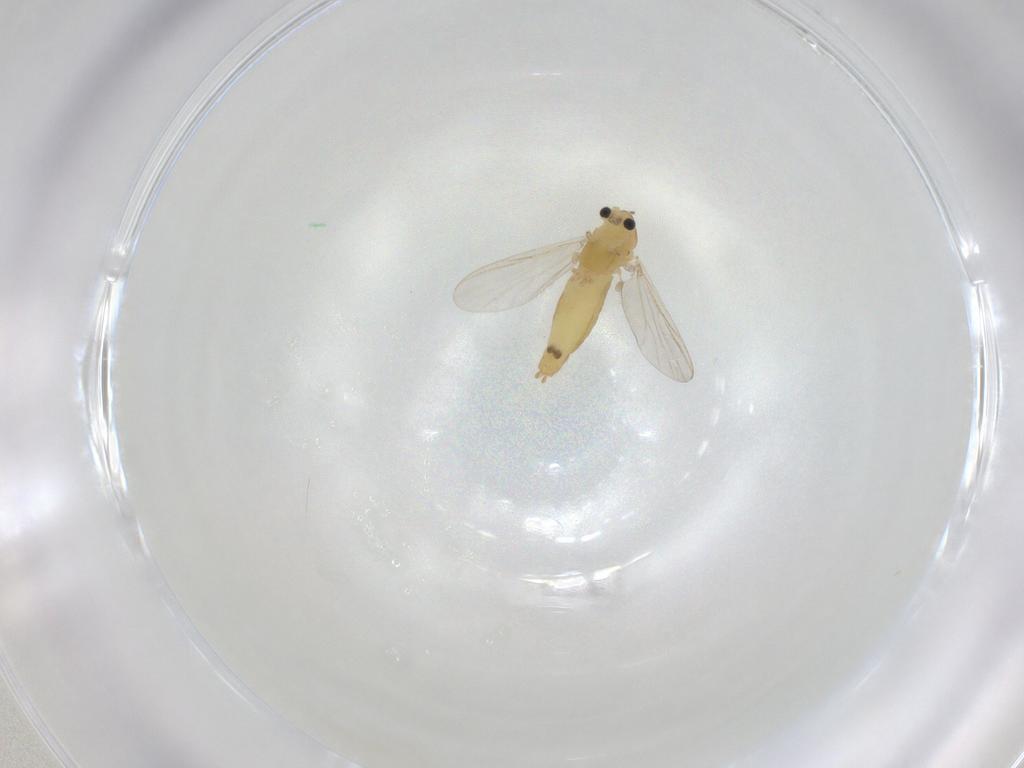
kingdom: Animalia
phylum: Arthropoda
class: Insecta
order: Diptera
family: Chironomidae
